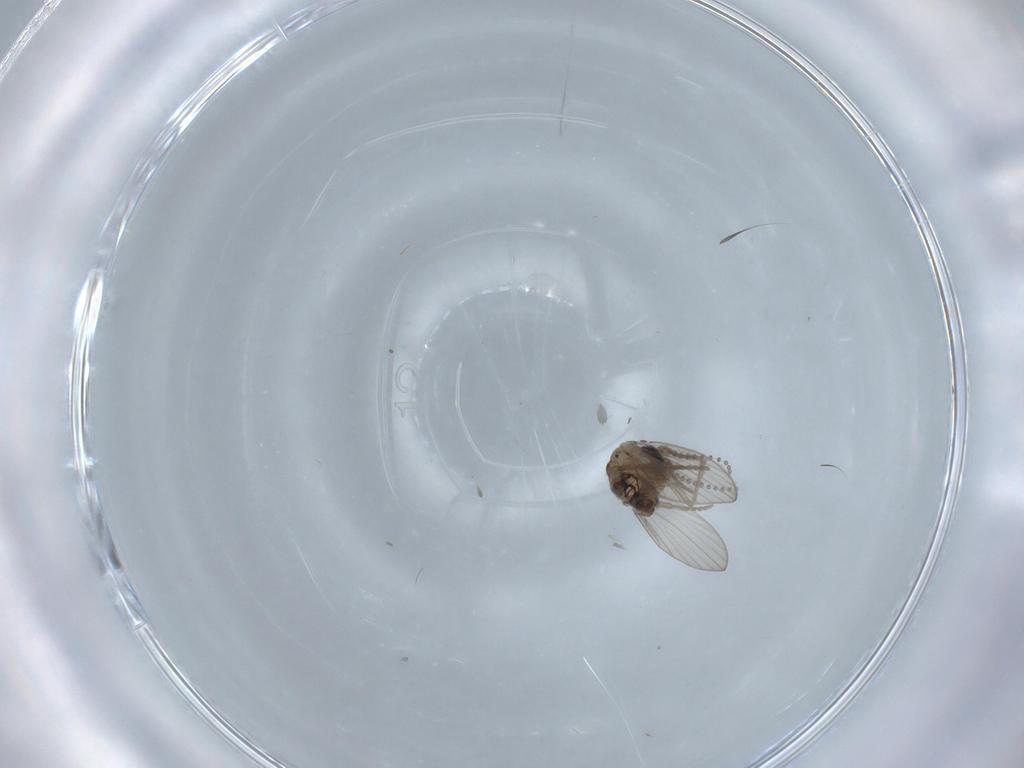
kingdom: Animalia
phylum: Arthropoda
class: Insecta
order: Diptera
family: Psychodidae
